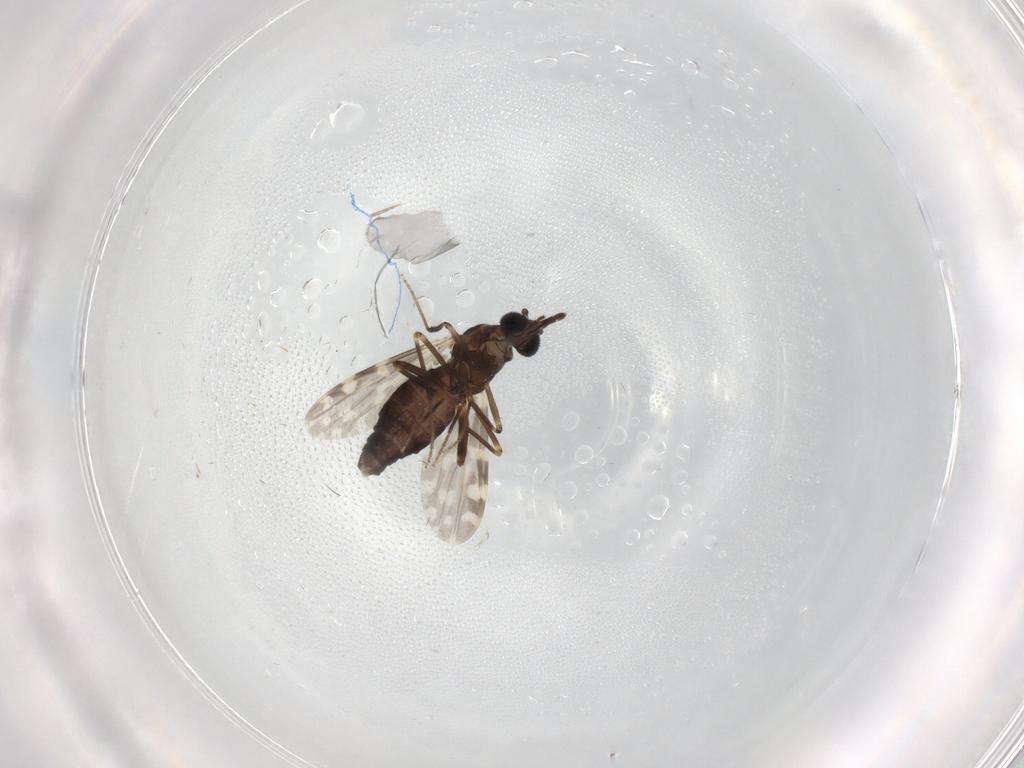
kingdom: Animalia
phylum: Arthropoda
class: Insecta
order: Diptera
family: Ceratopogonidae
